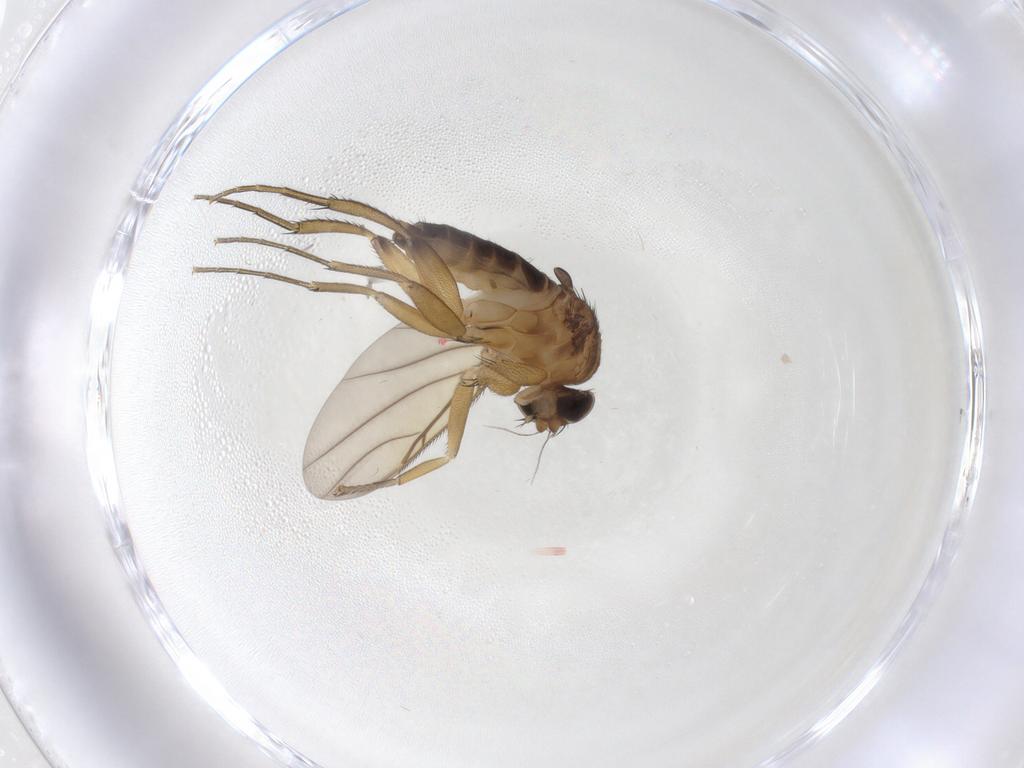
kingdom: Animalia
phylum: Arthropoda
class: Insecta
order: Diptera
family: Phoridae
